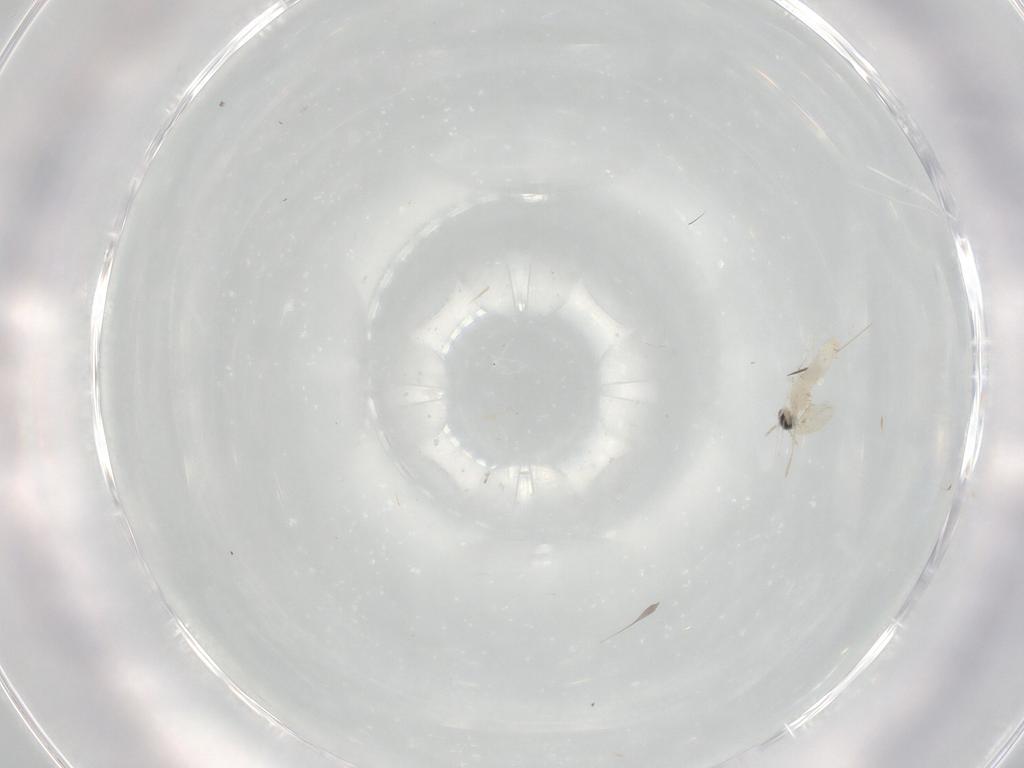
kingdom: Animalia
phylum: Arthropoda
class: Insecta
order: Diptera
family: Cecidomyiidae
